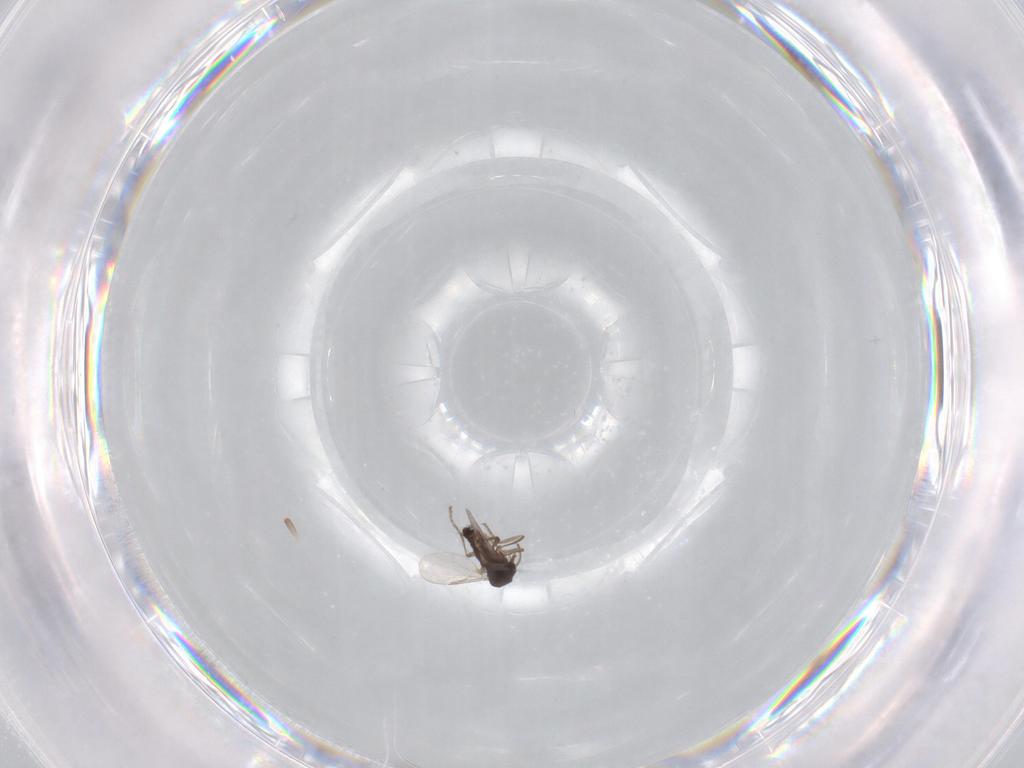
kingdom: Animalia
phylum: Arthropoda
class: Insecta
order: Diptera
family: Ceratopogonidae
